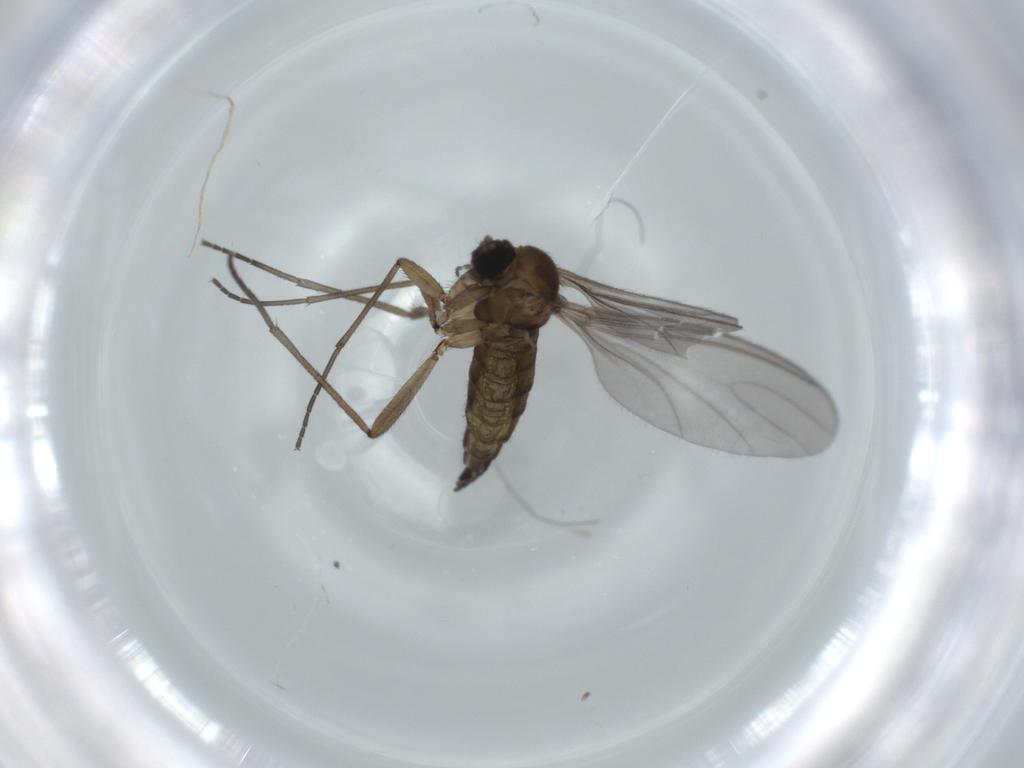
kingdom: Animalia
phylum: Arthropoda
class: Insecta
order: Diptera
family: Sciaridae
